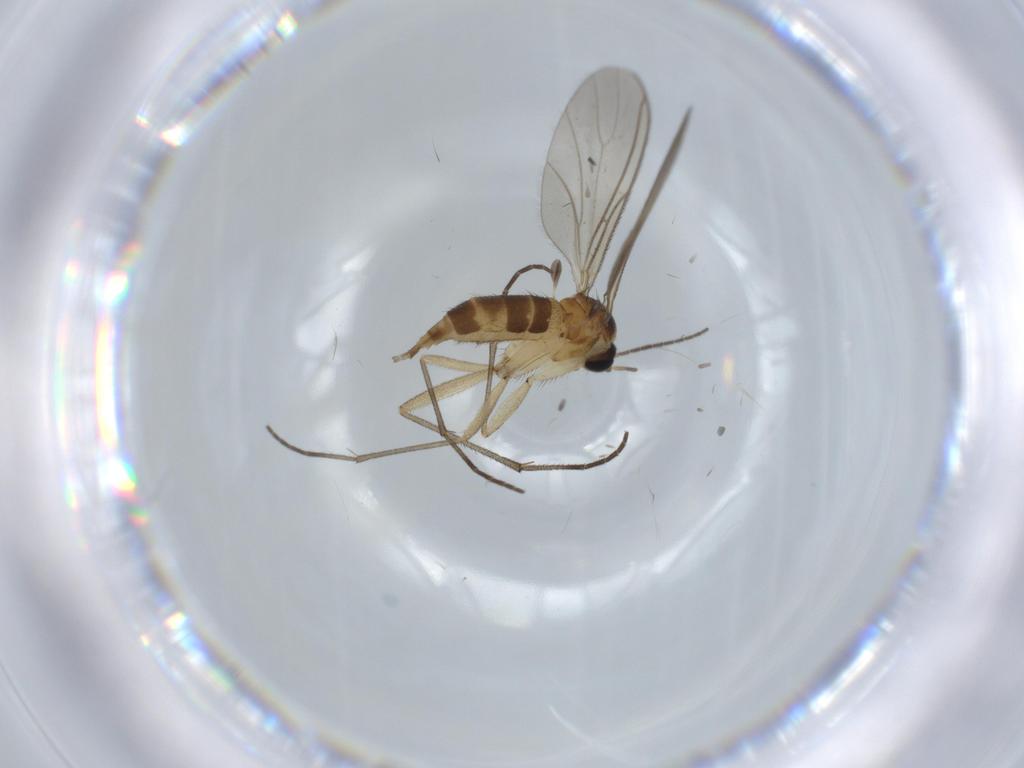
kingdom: Animalia
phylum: Arthropoda
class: Insecta
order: Diptera
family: Sciaridae
